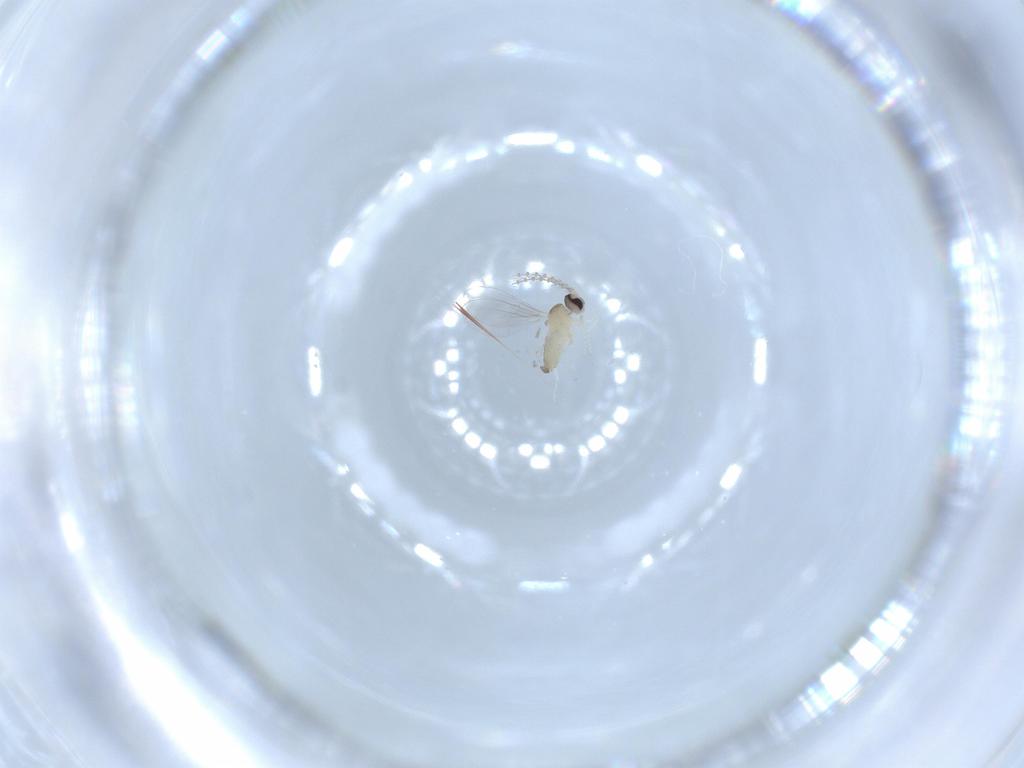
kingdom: Animalia
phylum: Arthropoda
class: Insecta
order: Diptera
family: Cecidomyiidae
